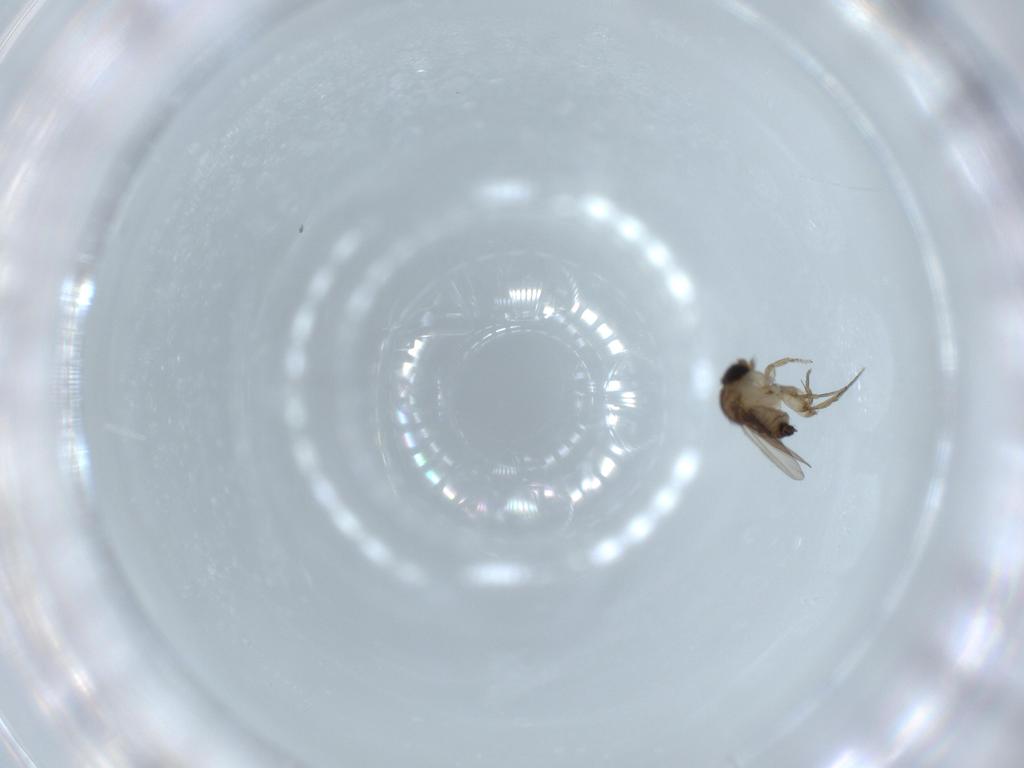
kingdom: Animalia
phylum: Arthropoda
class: Insecta
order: Diptera
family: Phoridae
